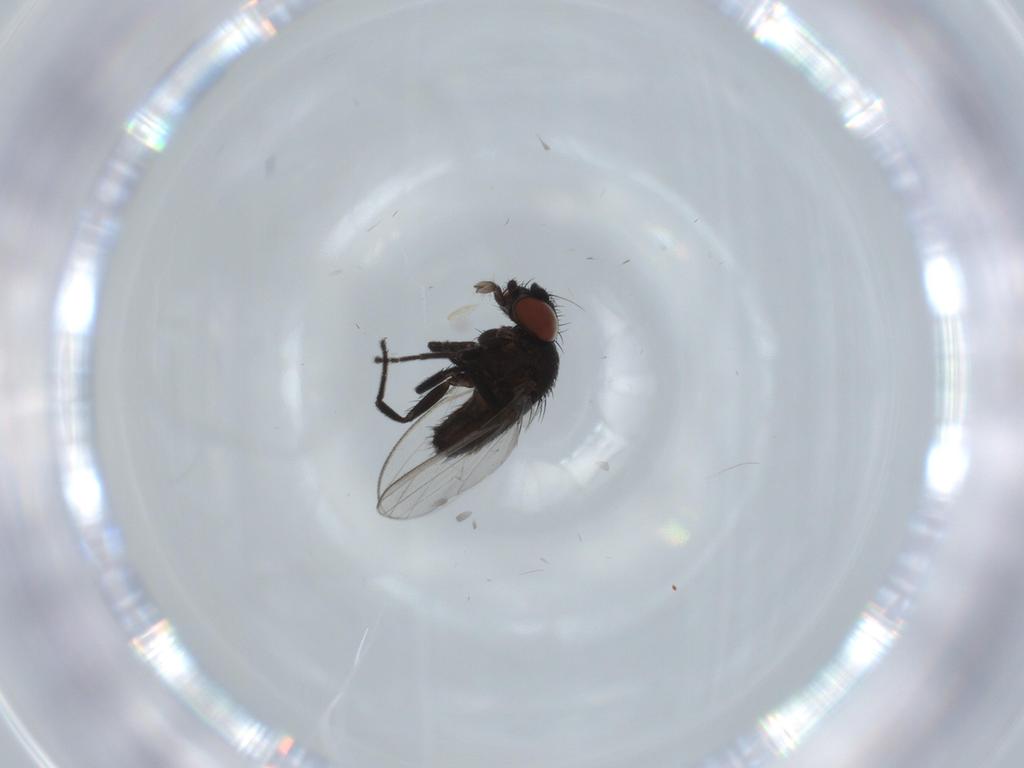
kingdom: Animalia
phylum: Arthropoda
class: Insecta
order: Diptera
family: Phoridae
